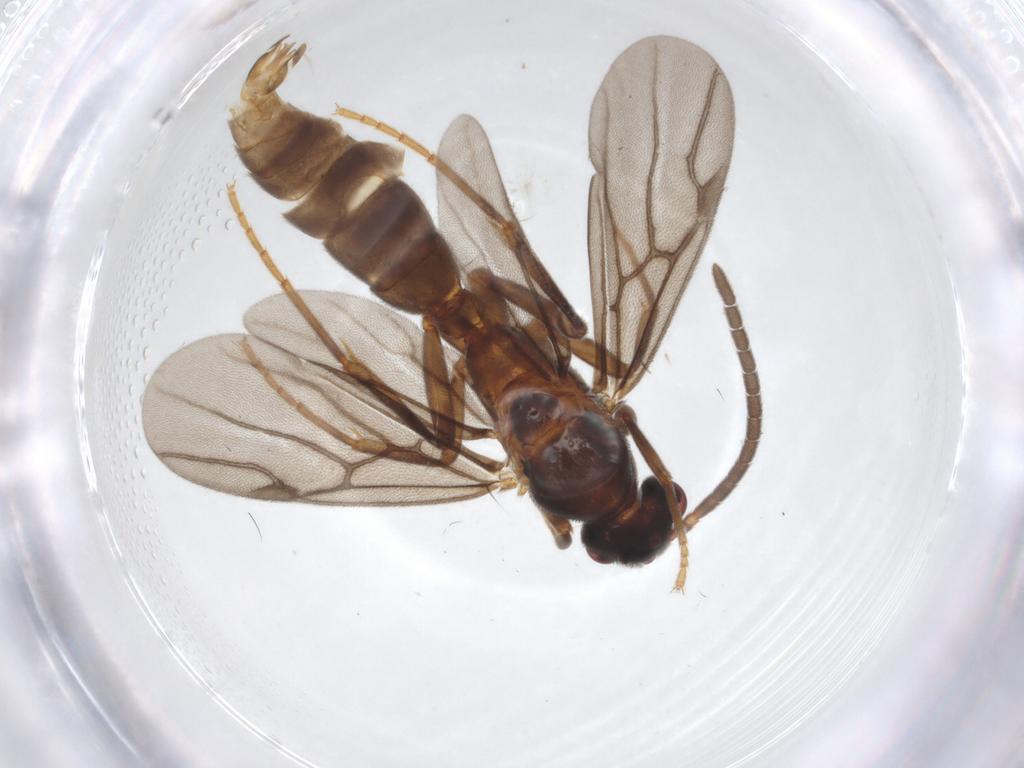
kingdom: Animalia
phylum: Arthropoda
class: Insecta
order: Hymenoptera
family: Formicidae
